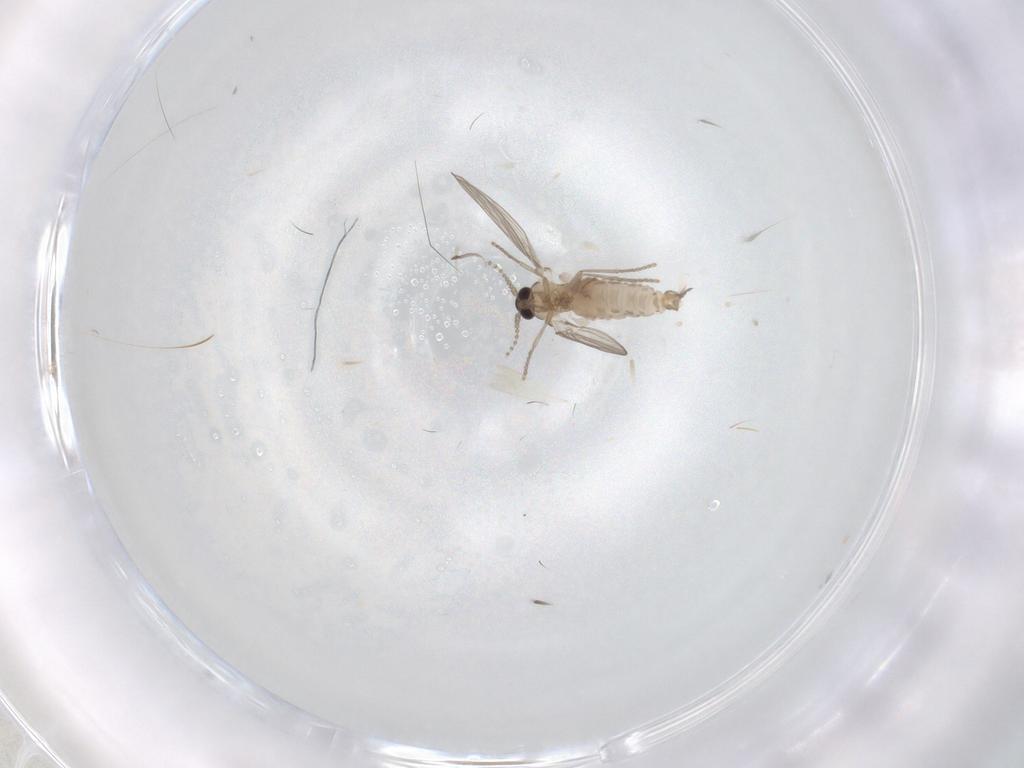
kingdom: Animalia
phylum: Arthropoda
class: Insecta
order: Diptera
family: Psychodidae
